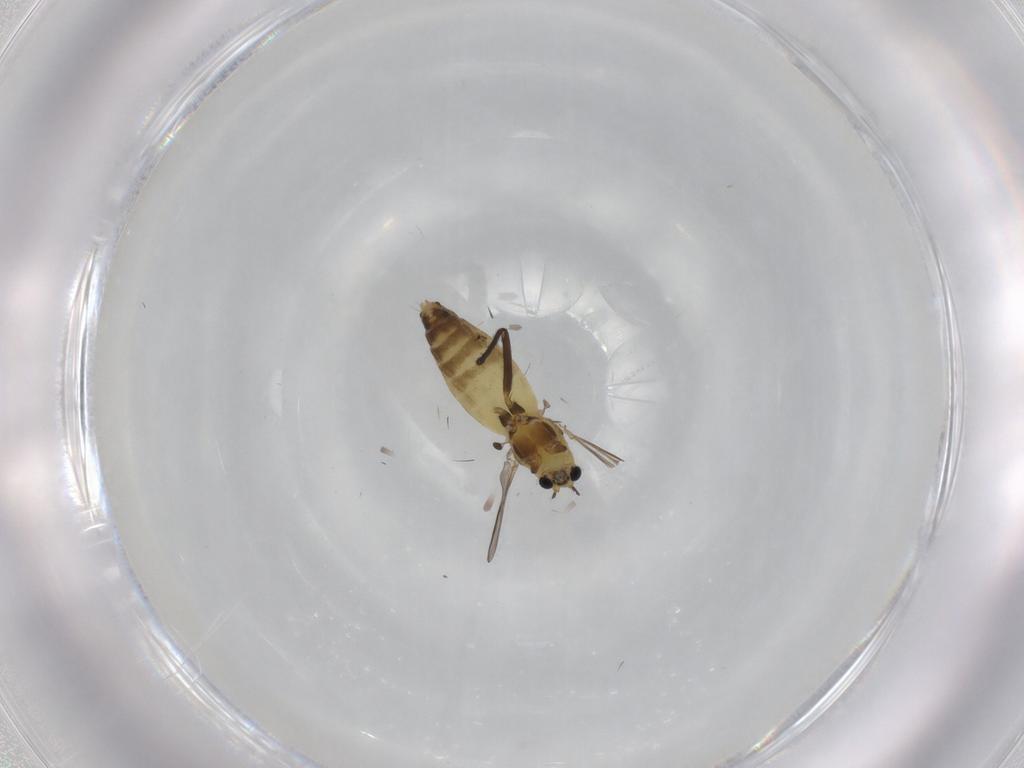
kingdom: Animalia
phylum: Arthropoda
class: Insecta
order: Diptera
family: Chironomidae
